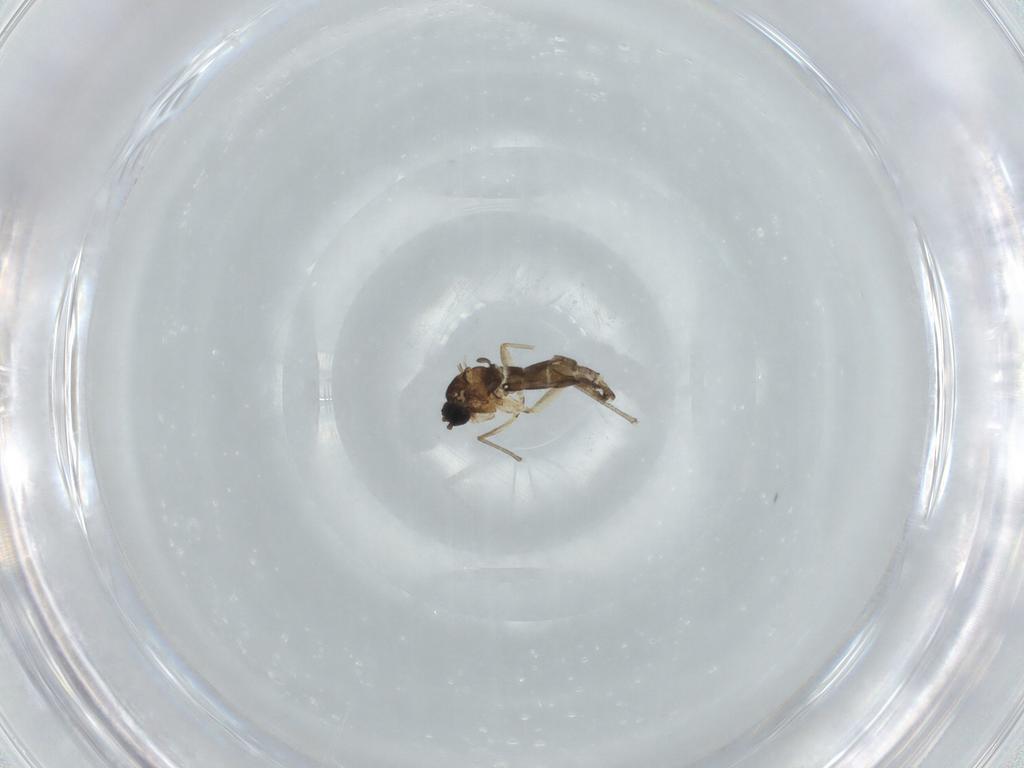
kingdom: Animalia
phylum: Arthropoda
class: Insecta
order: Diptera
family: Sciaridae
